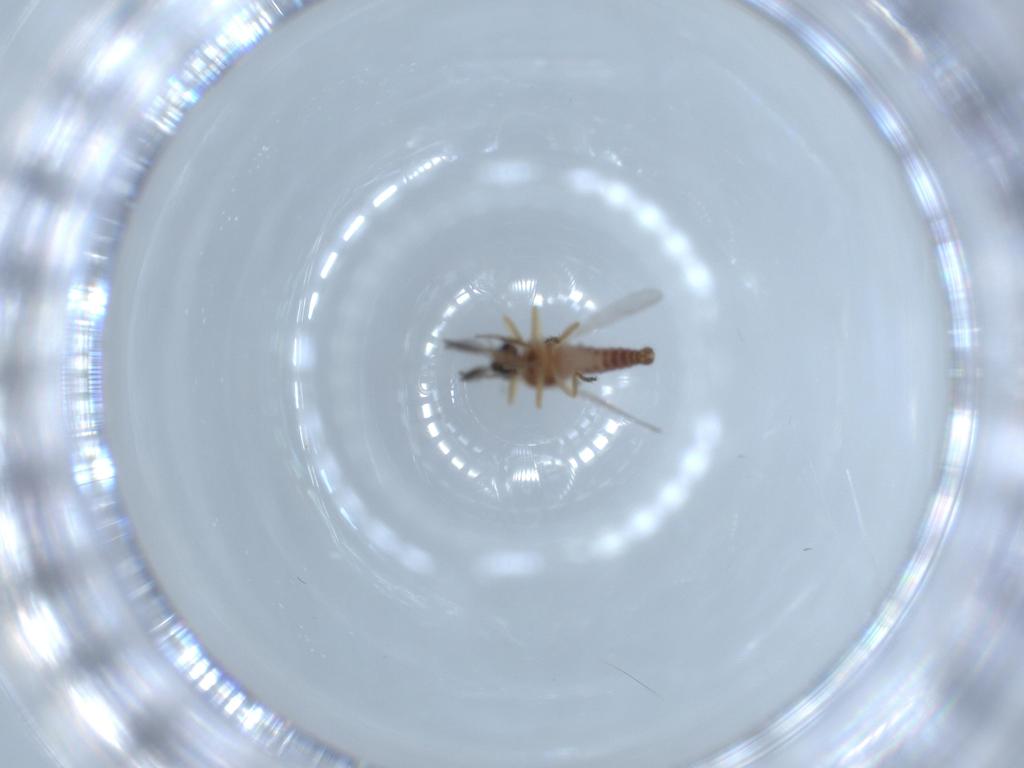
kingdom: Animalia
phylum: Arthropoda
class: Insecta
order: Diptera
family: Ceratopogonidae
